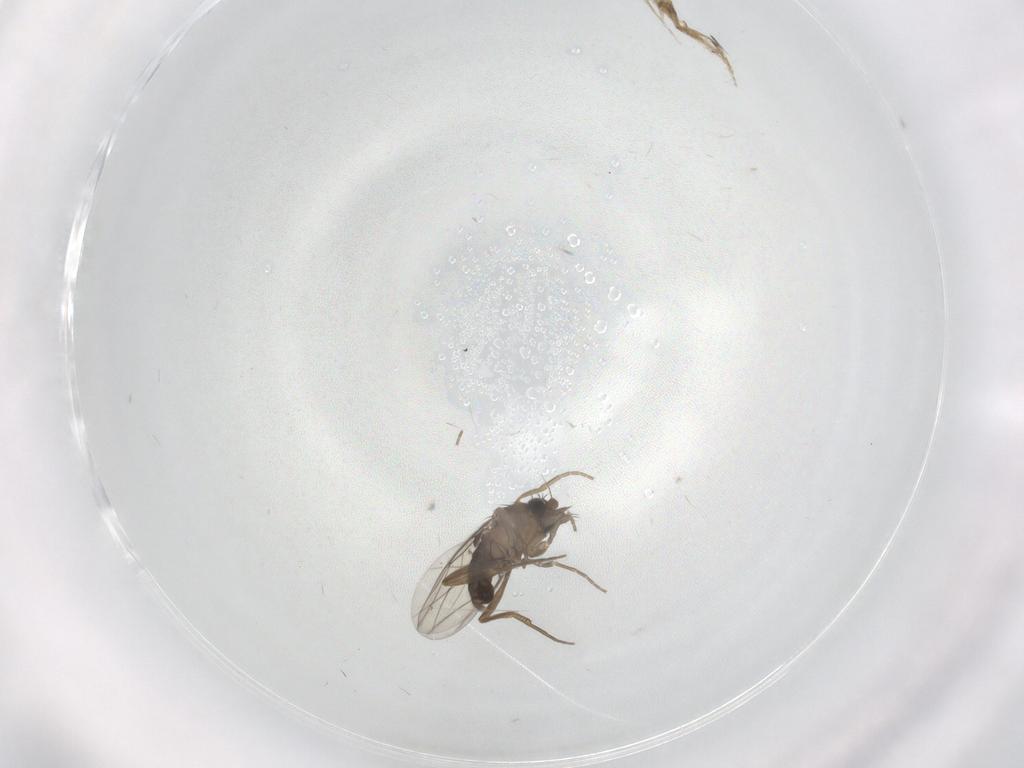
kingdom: Animalia
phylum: Arthropoda
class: Insecta
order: Diptera
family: Phoridae
